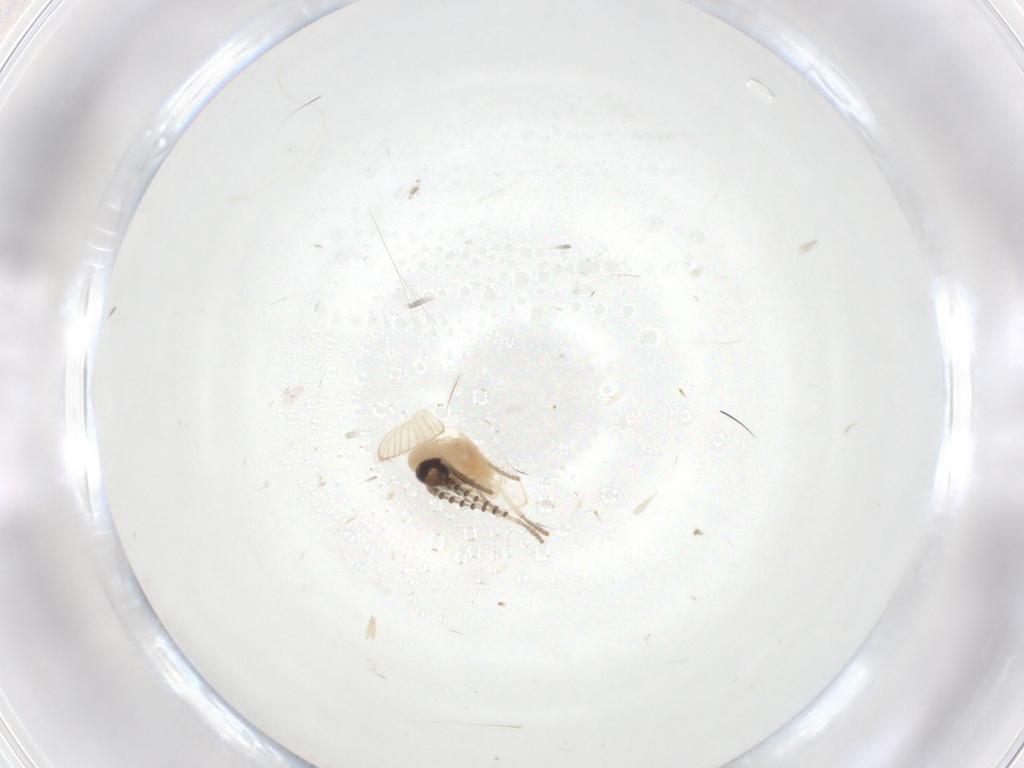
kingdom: Animalia
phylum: Arthropoda
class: Insecta
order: Diptera
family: Psychodidae
